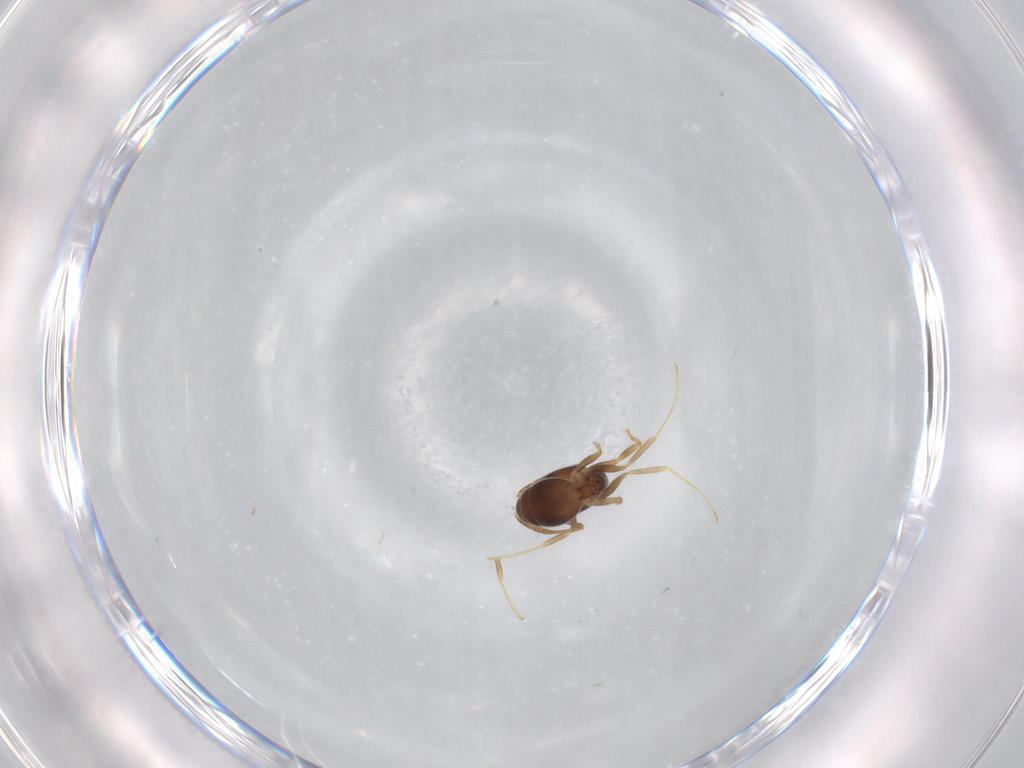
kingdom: Animalia
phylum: Arthropoda
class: Insecta
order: Hymenoptera
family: Formicidae
